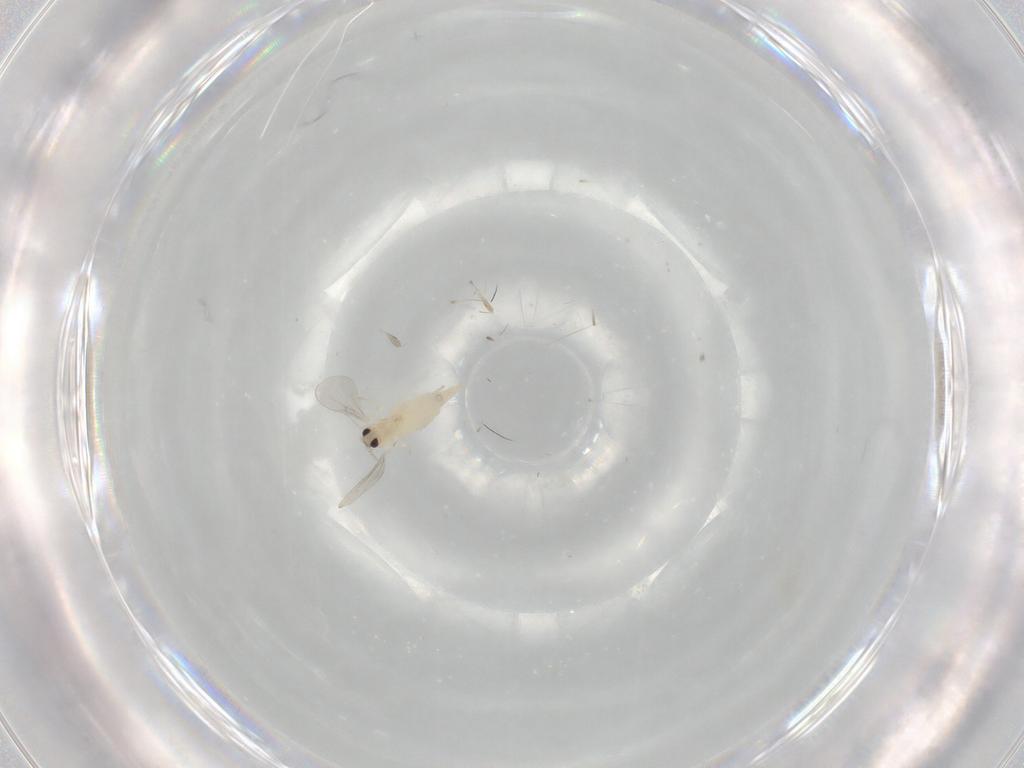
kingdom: Animalia
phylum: Arthropoda
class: Insecta
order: Diptera
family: Cecidomyiidae
